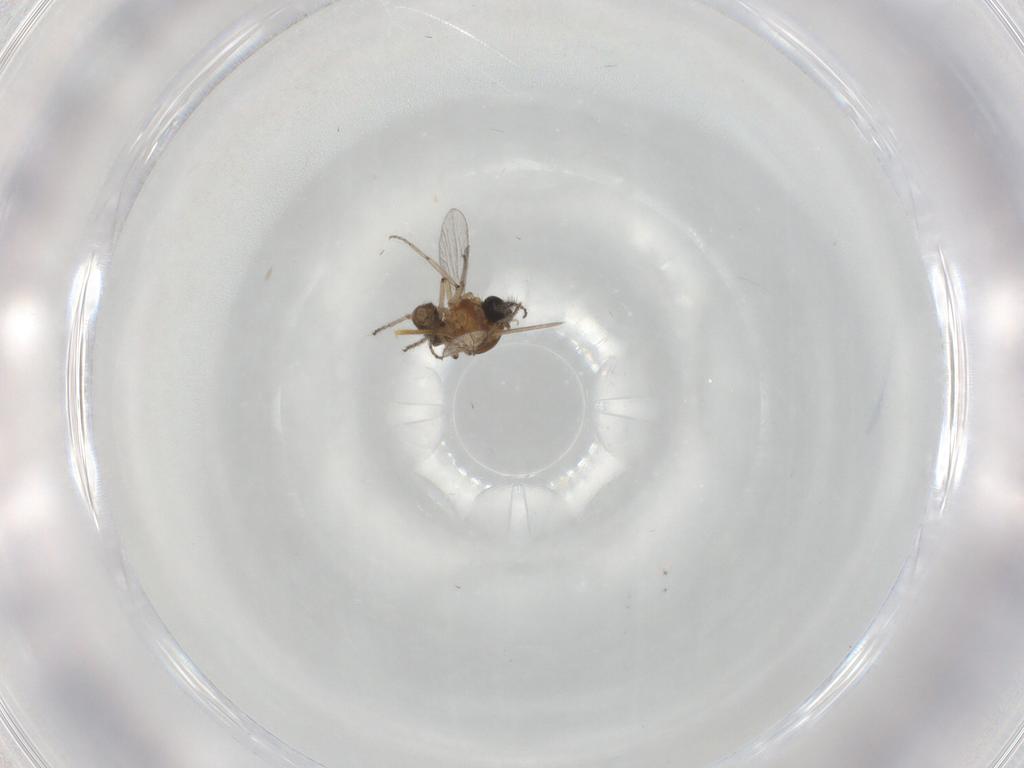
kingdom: Animalia
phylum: Arthropoda
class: Insecta
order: Diptera
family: Ceratopogonidae
